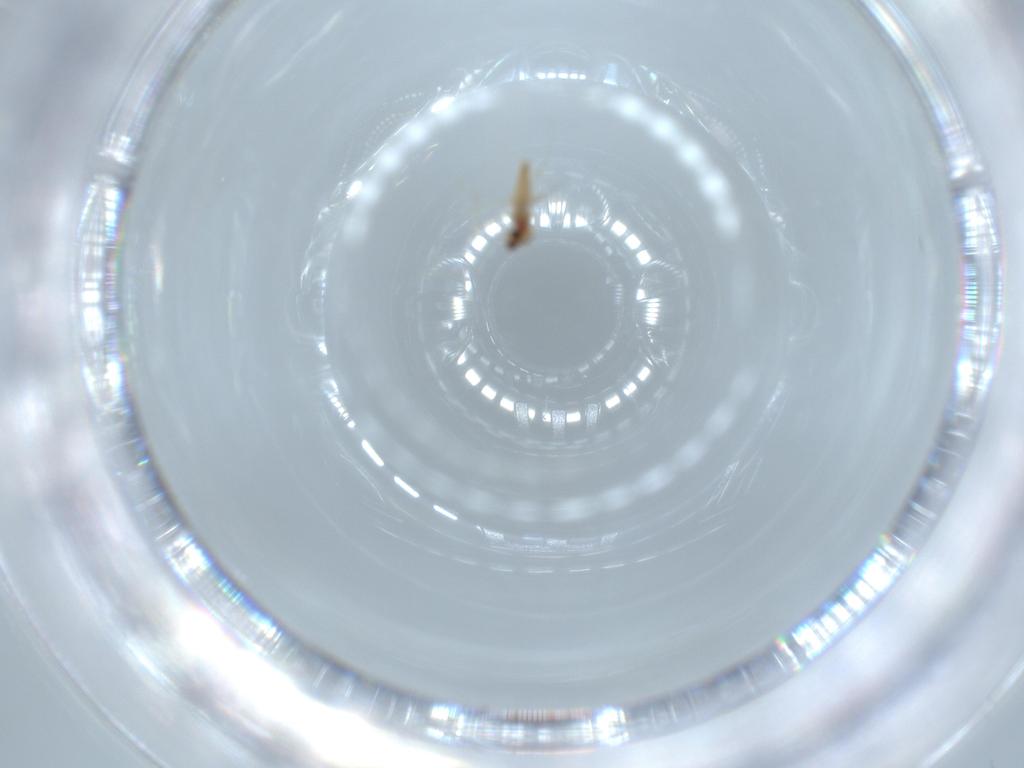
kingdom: Animalia
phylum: Arthropoda
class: Insecta
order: Diptera
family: Cecidomyiidae
